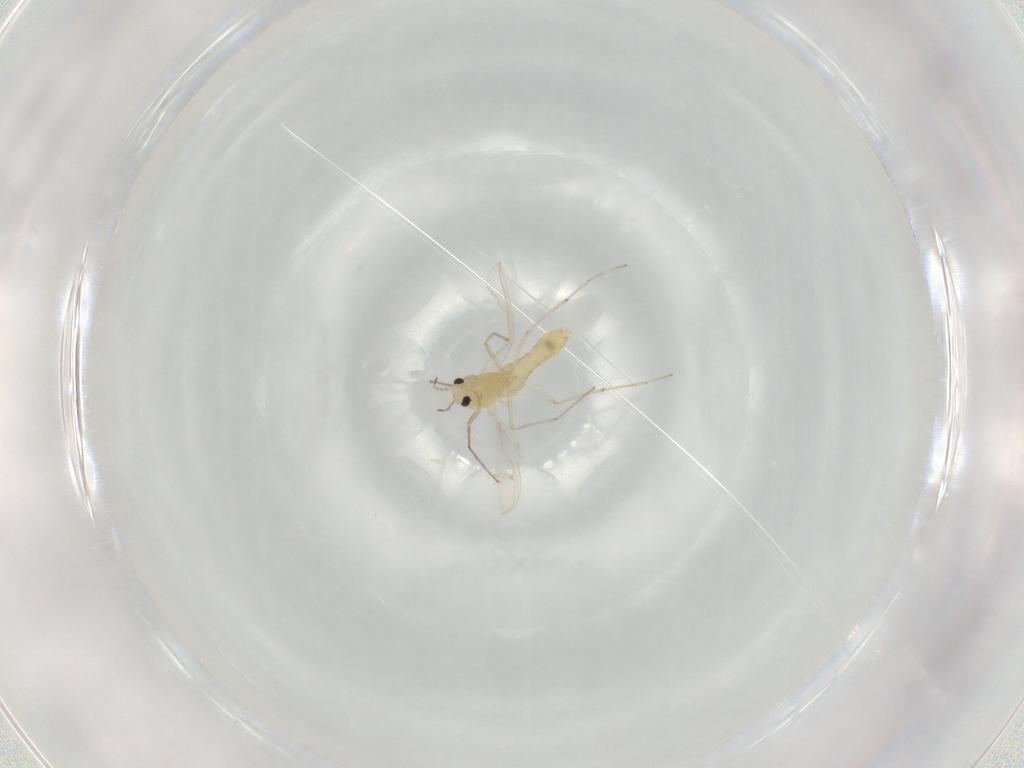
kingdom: Animalia
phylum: Arthropoda
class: Insecta
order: Diptera
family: Chironomidae
